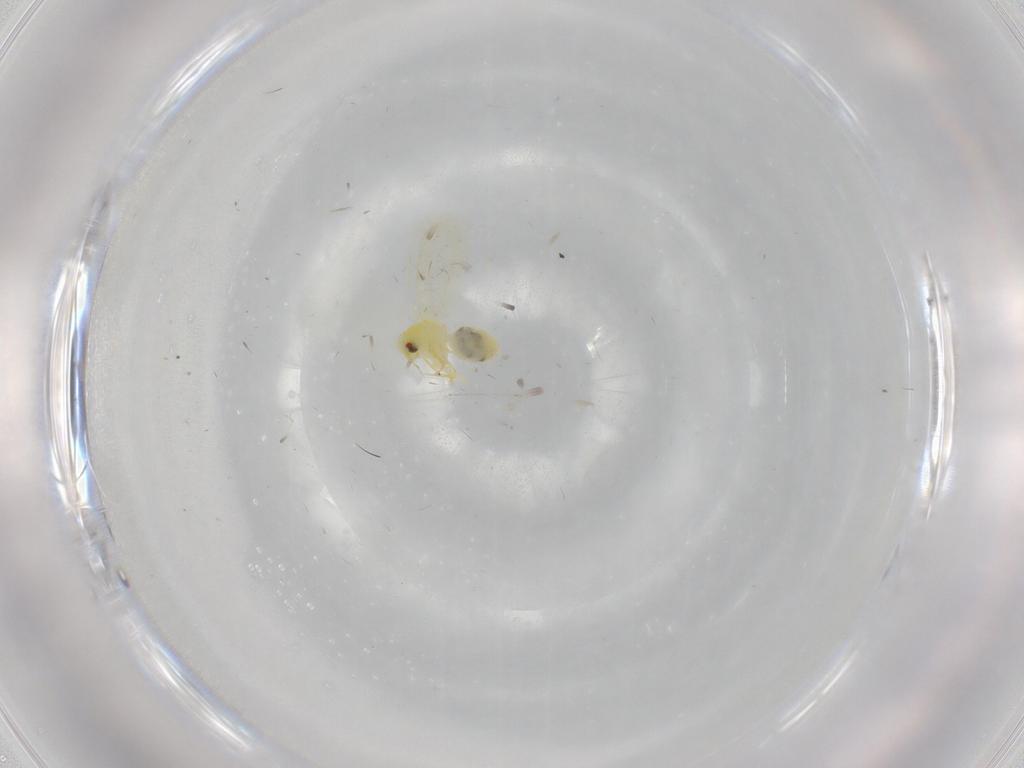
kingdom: Animalia
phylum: Arthropoda
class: Insecta
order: Hemiptera
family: Aleyrodidae
